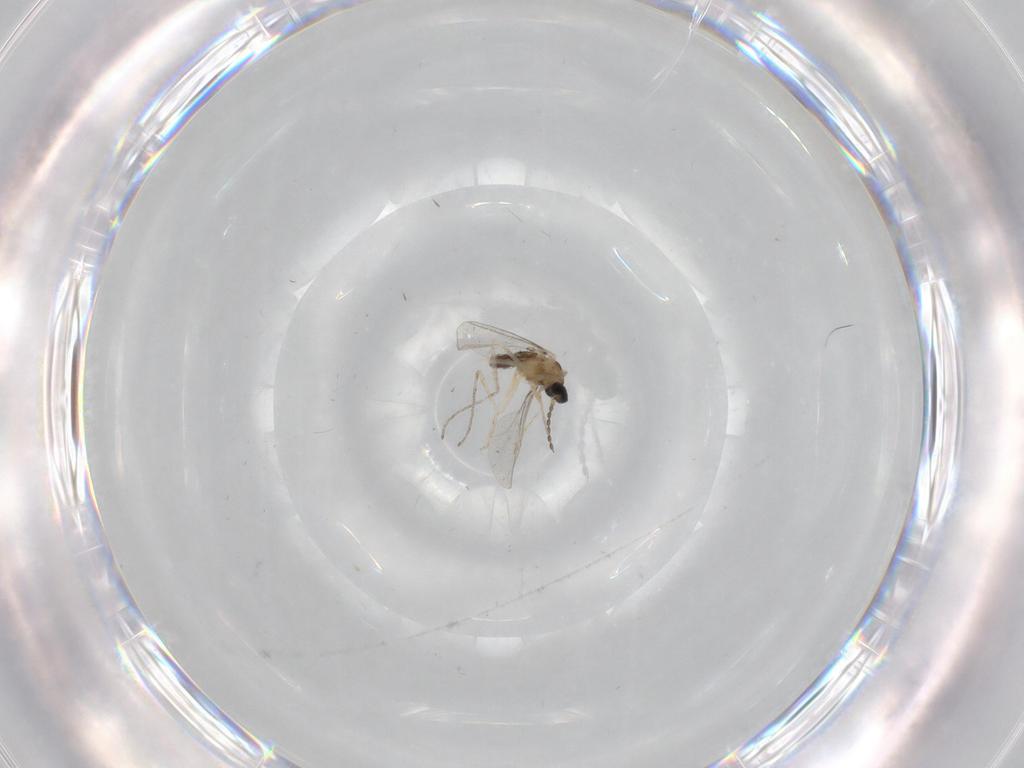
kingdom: Animalia
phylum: Arthropoda
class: Insecta
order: Diptera
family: Cecidomyiidae
